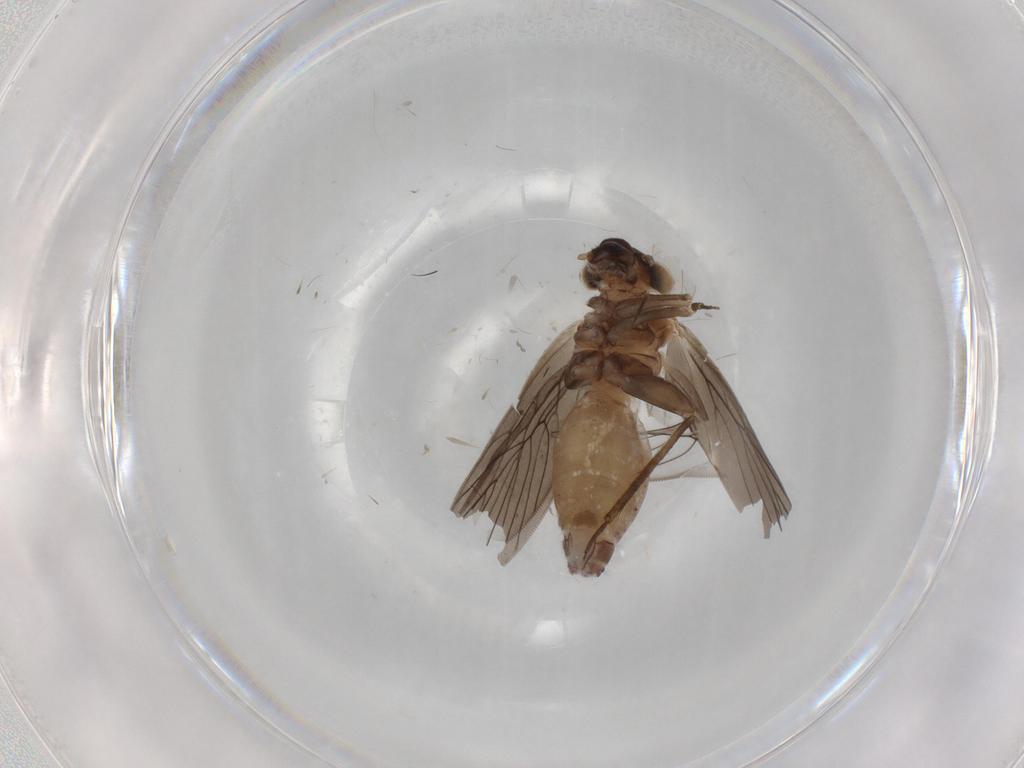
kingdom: Animalia
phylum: Arthropoda
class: Insecta
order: Psocodea
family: Lepidopsocidae
